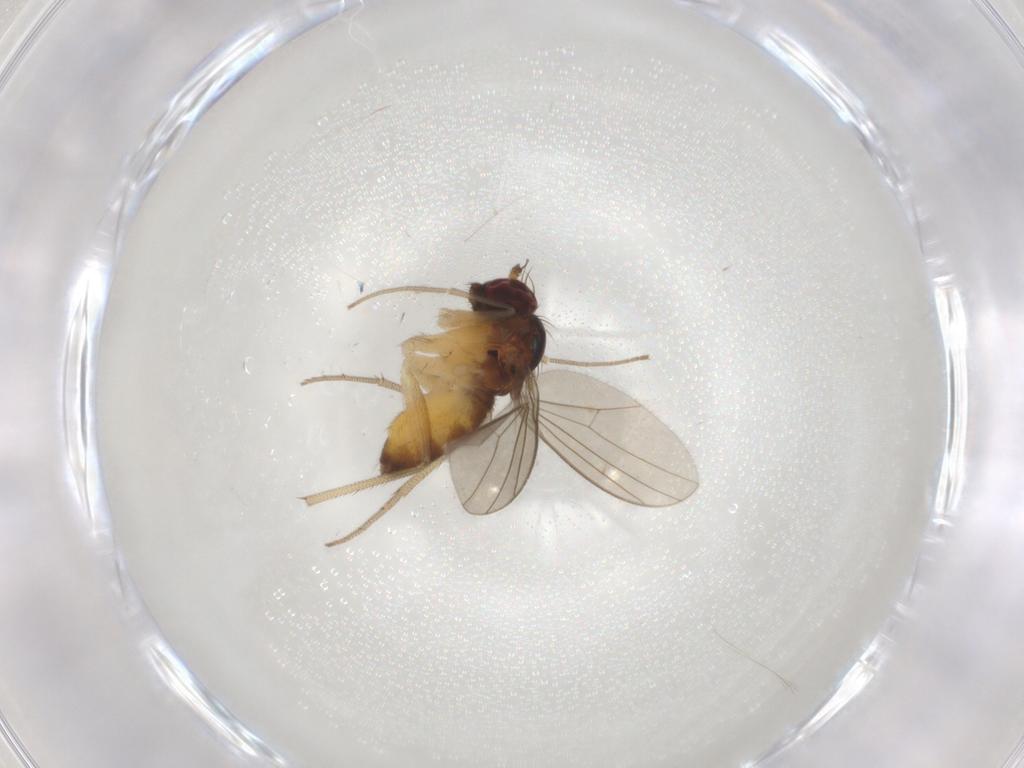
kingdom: Animalia
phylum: Arthropoda
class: Insecta
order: Diptera
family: Dolichopodidae
